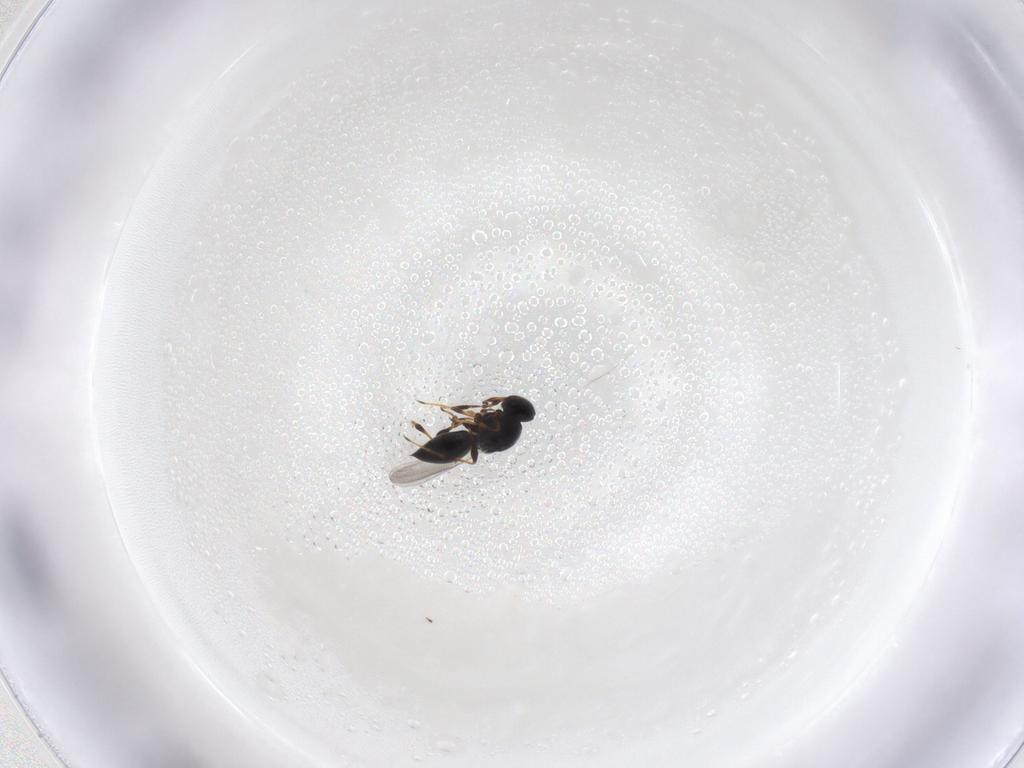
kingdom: Animalia
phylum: Arthropoda
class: Insecta
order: Hymenoptera
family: Platygastridae
